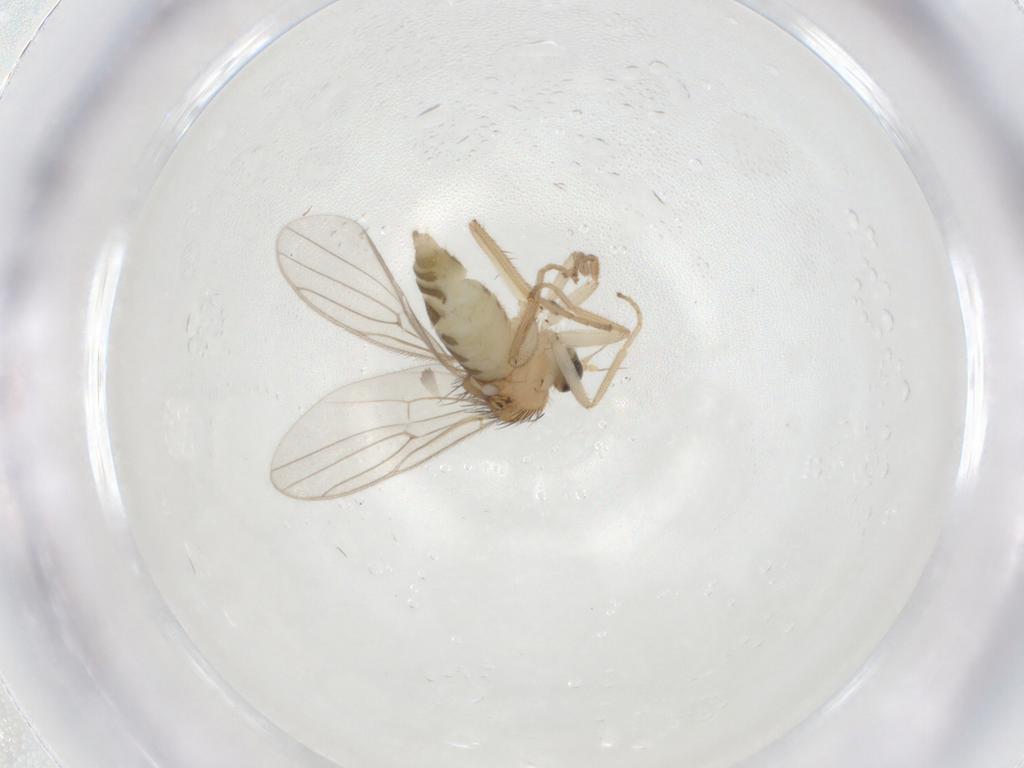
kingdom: Animalia
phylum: Arthropoda
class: Insecta
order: Diptera
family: Hybotidae
